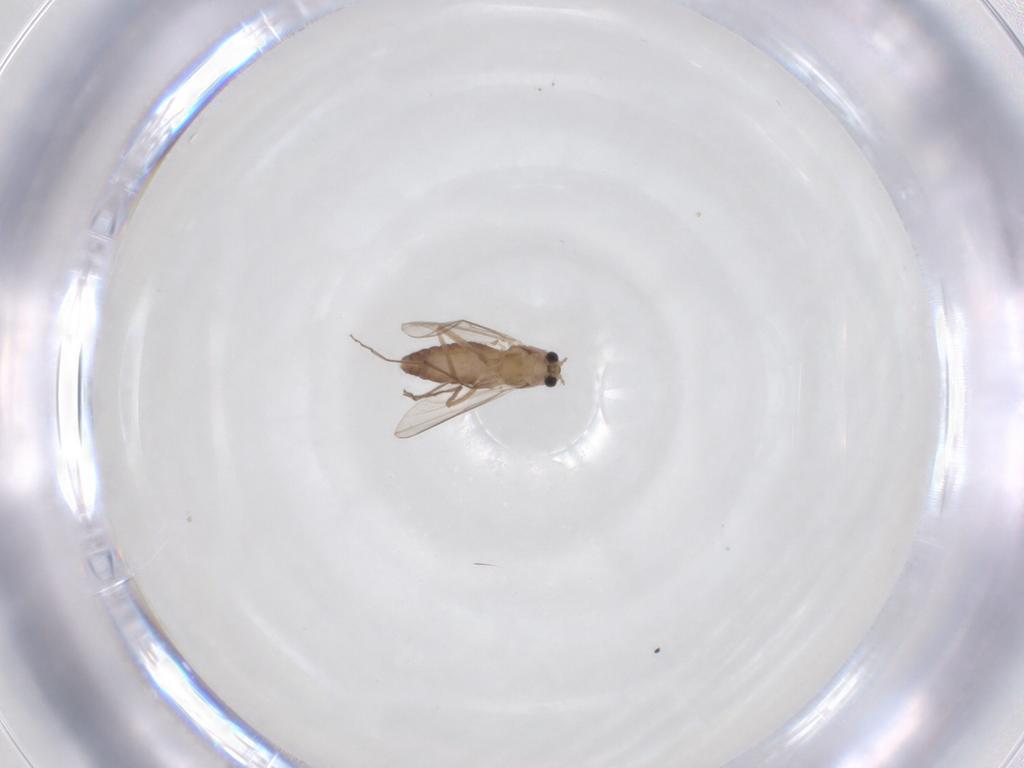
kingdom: Animalia
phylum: Arthropoda
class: Insecta
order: Diptera
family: Chironomidae
